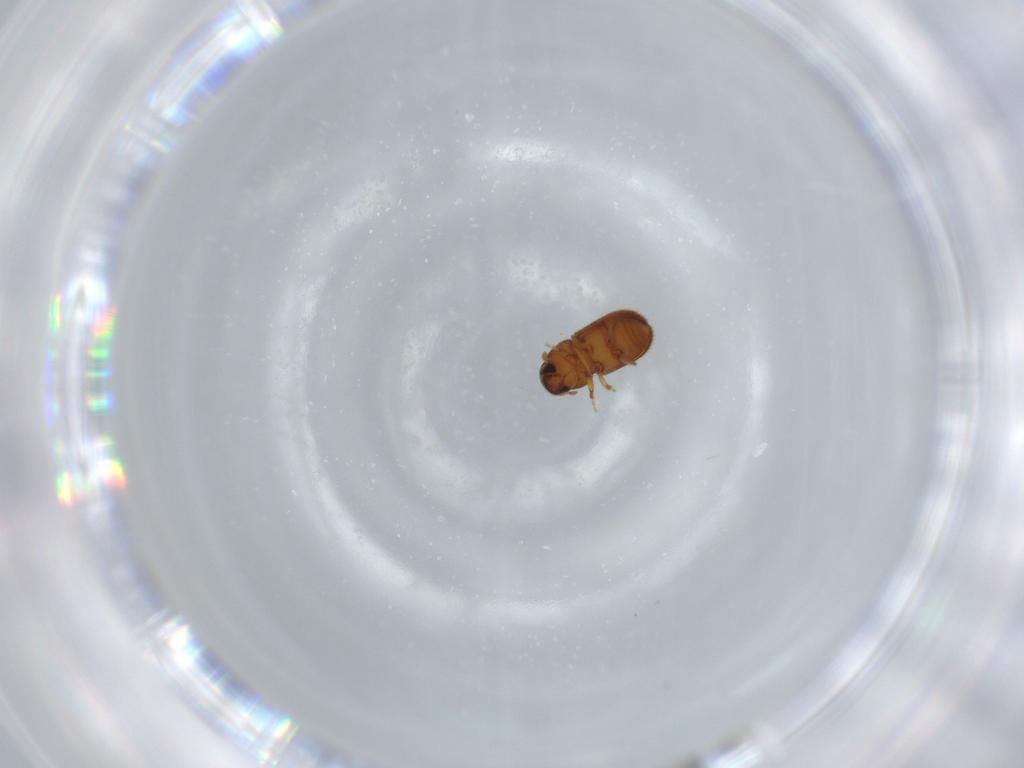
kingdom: Animalia
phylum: Arthropoda
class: Insecta
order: Coleoptera
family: Curculionidae
